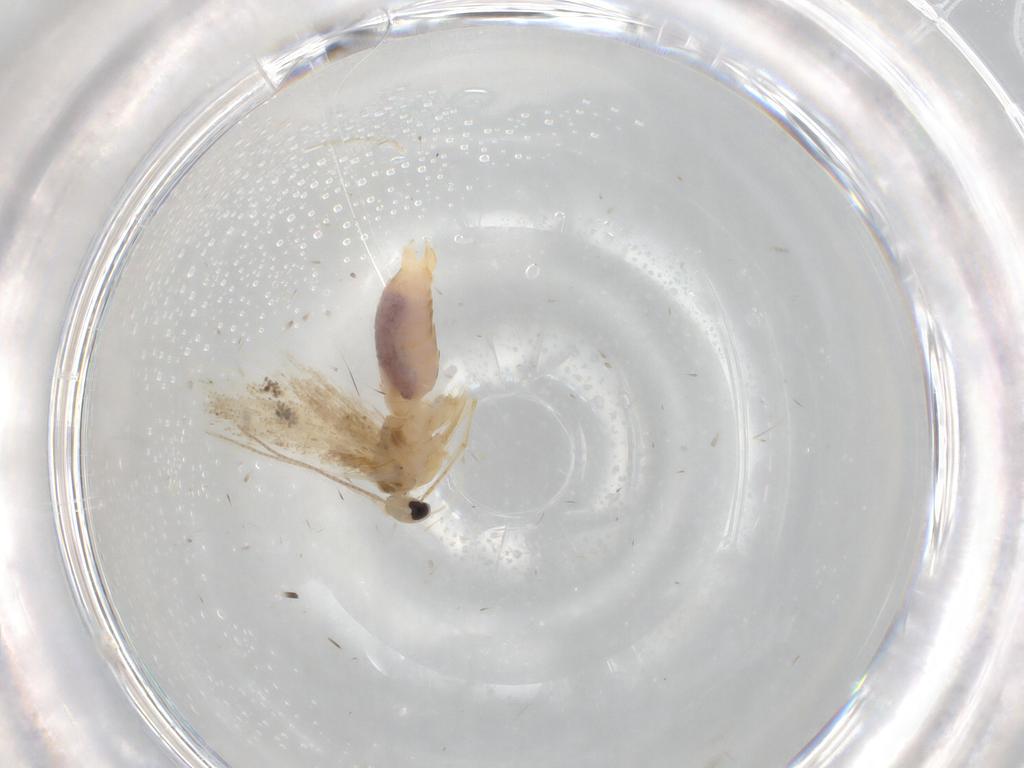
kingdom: Animalia
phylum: Arthropoda
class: Insecta
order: Lepidoptera
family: Bucculatricidae
